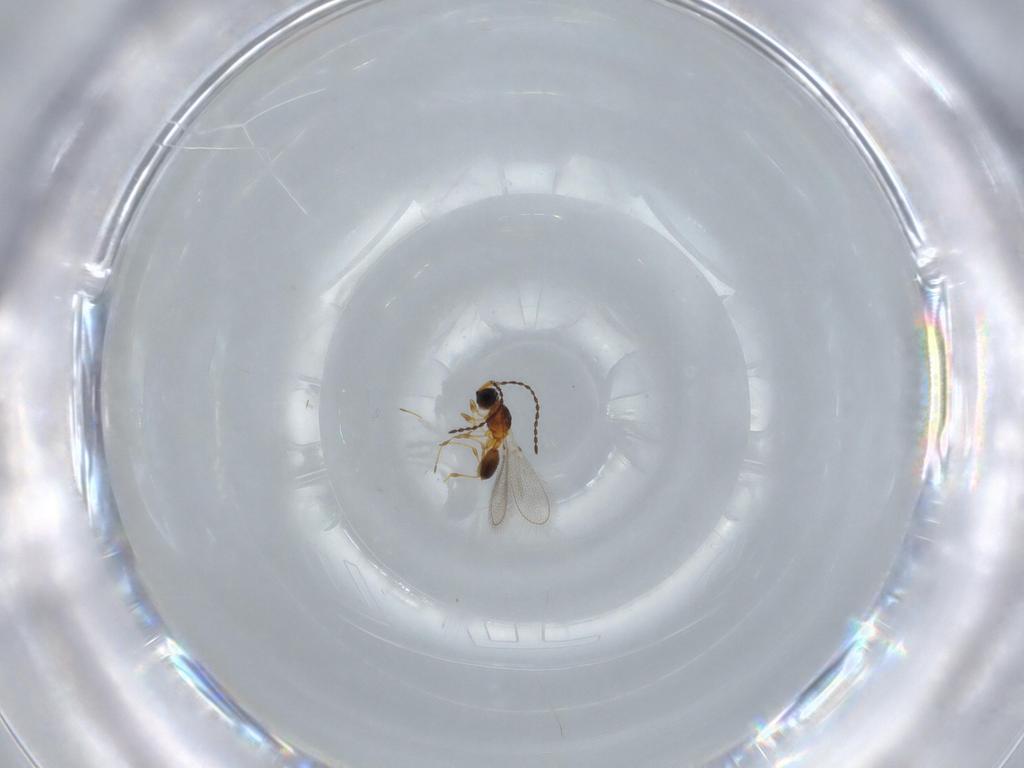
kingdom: Animalia
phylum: Arthropoda
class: Insecta
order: Hymenoptera
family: Diapriidae
